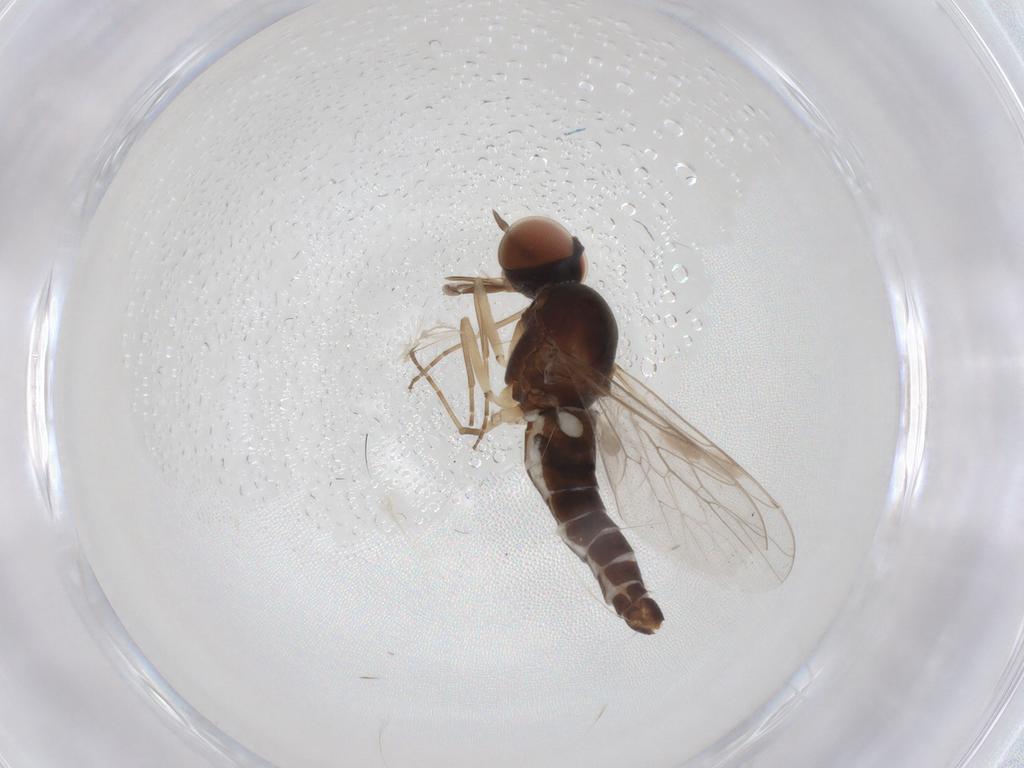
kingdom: Animalia
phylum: Arthropoda
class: Insecta
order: Diptera
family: Scenopinidae
